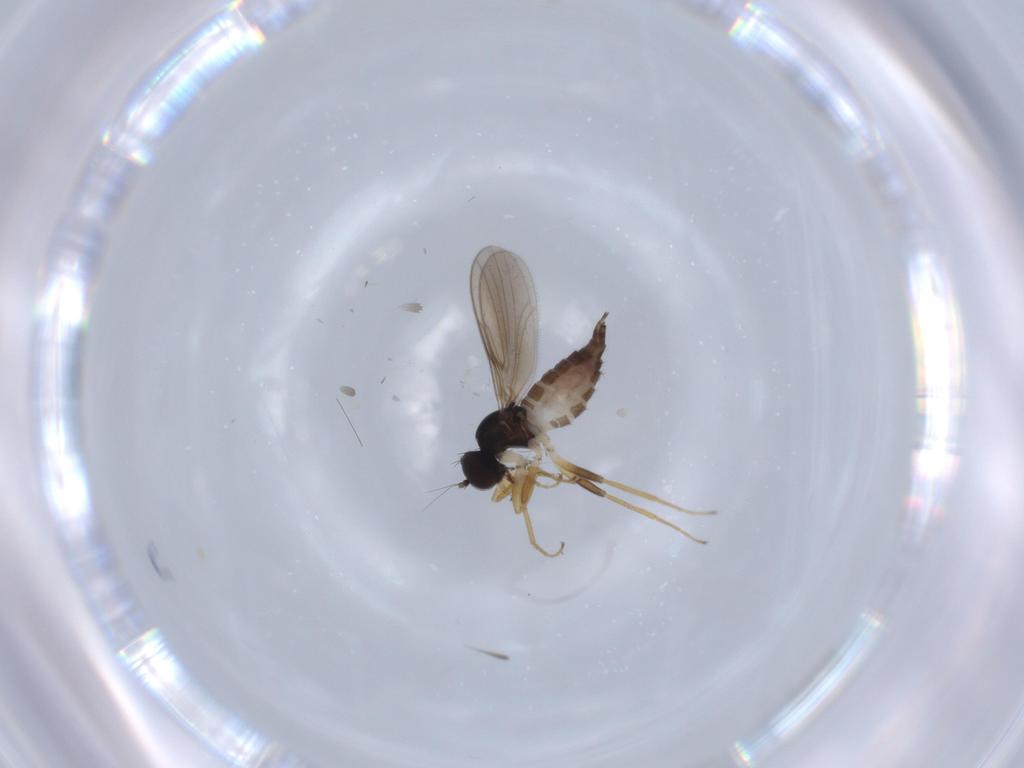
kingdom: Animalia
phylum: Arthropoda
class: Insecta
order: Diptera
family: Hybotidae
